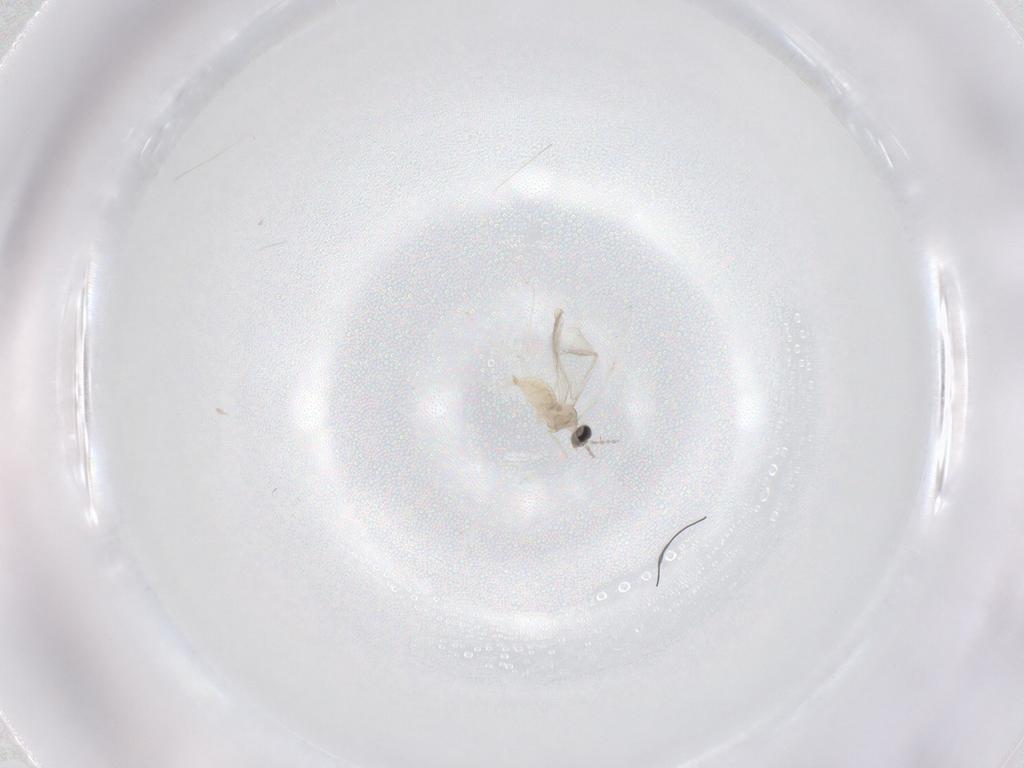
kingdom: Animalia
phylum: Arthropoda
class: Insecta
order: Diptera
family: Cecidomyiidae
